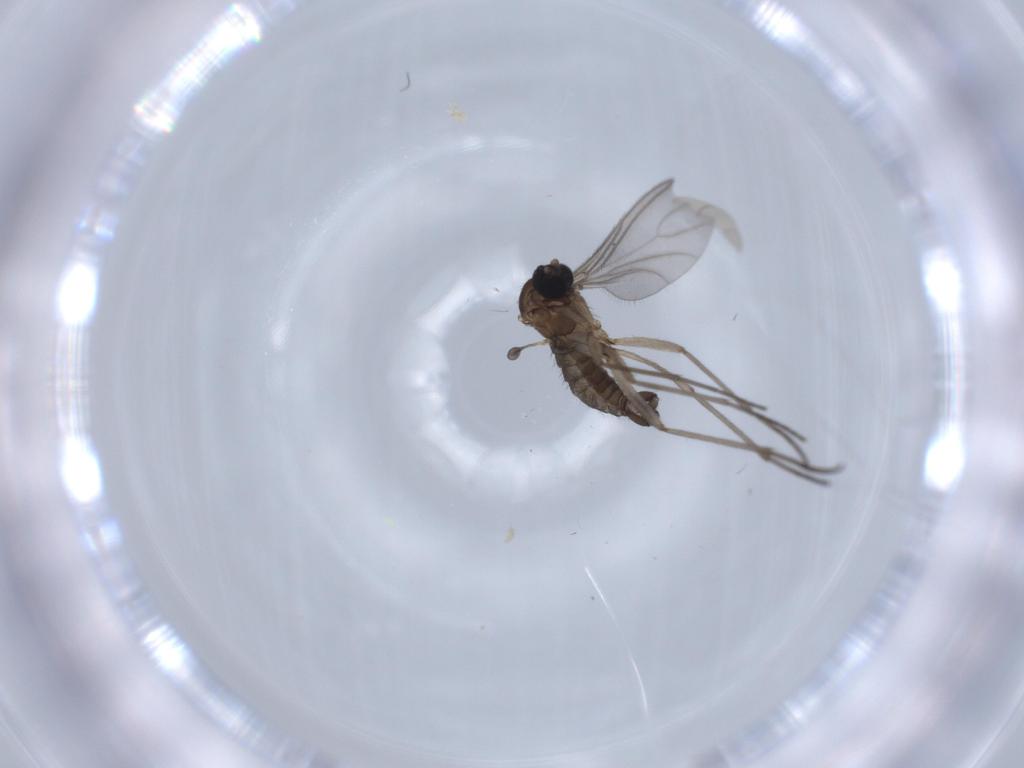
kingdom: Animalia
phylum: Arthropoda
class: Insecta
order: Diptera
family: Sciaridae
